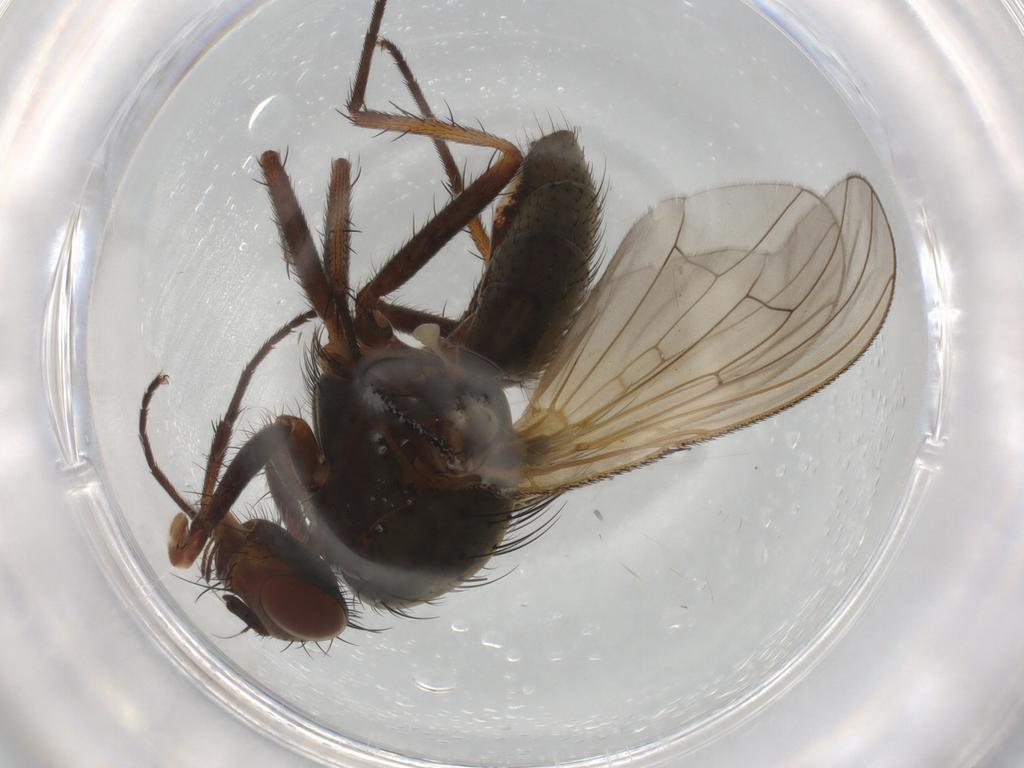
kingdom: Animalia
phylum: Arthropoda
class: Insecta
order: Diptera
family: Anthomyiidae
